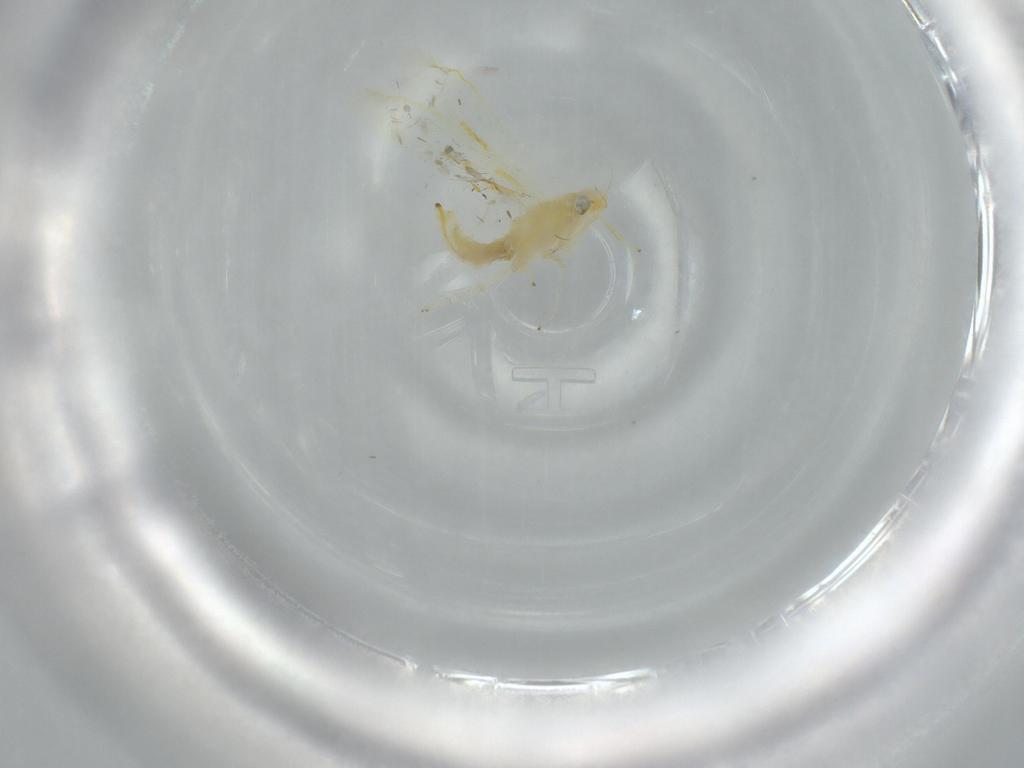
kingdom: Animalia
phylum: Arthropoda
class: Insecta
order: Hemiptera
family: Cicadellidae
